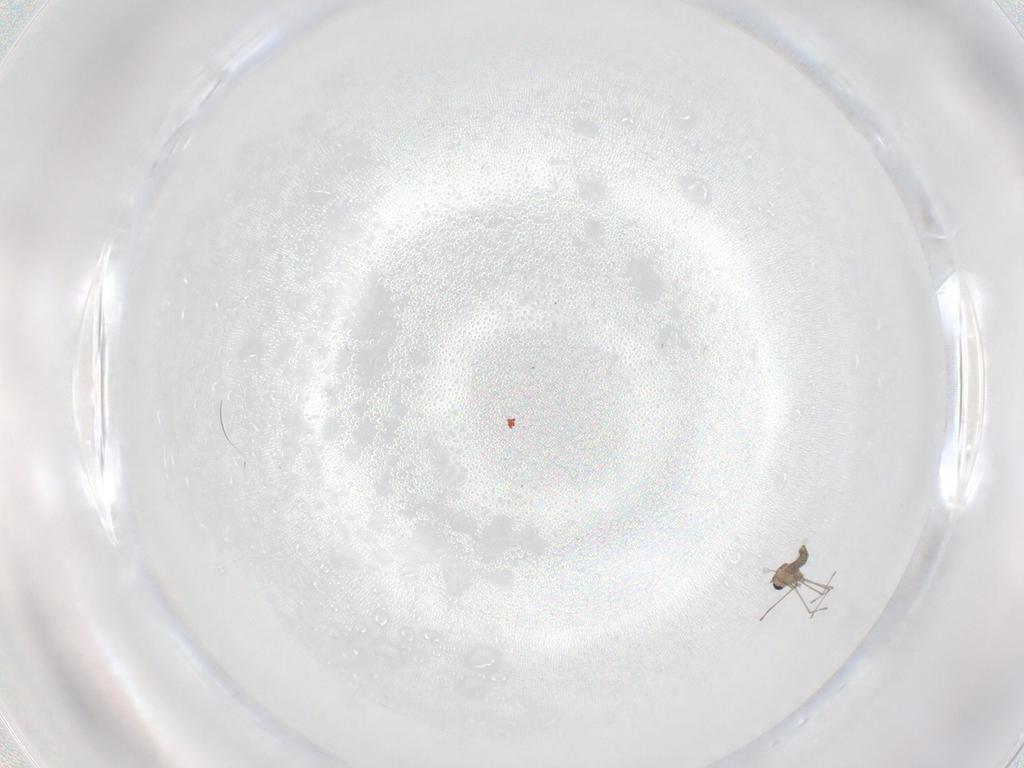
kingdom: Animalia
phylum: Arthropoda
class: Insecta
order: Diptera
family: Cecidomyiidae
